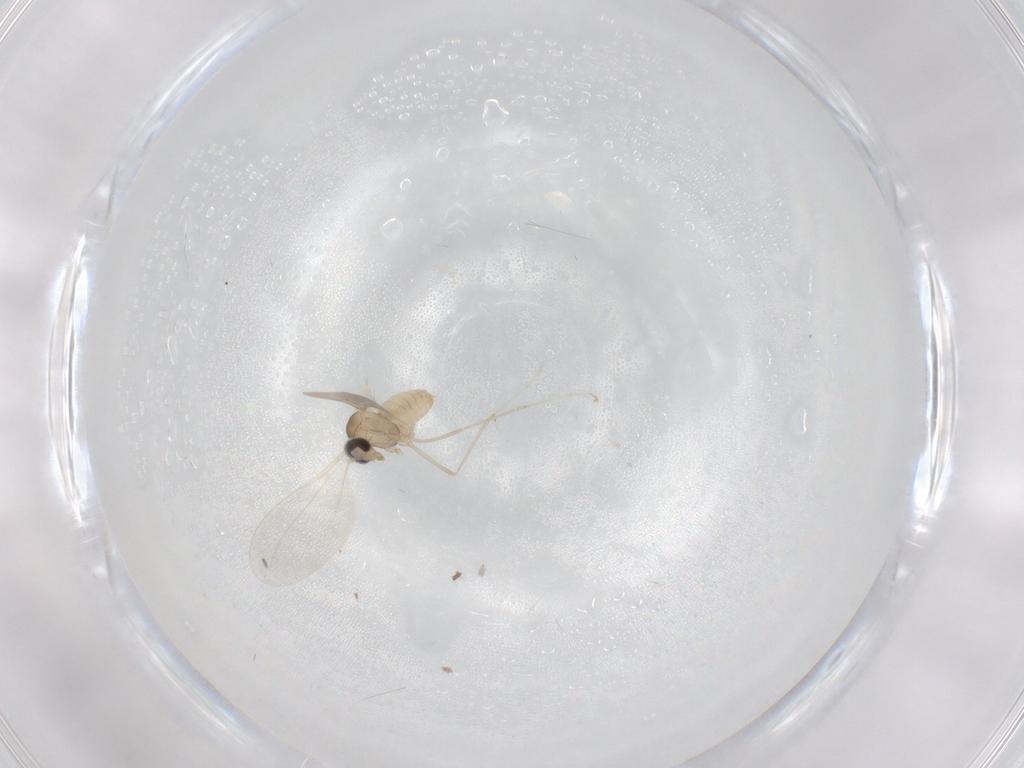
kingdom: Animalia
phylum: Arthropoda
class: Insecta
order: Diptera
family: Cecidomyiidae
